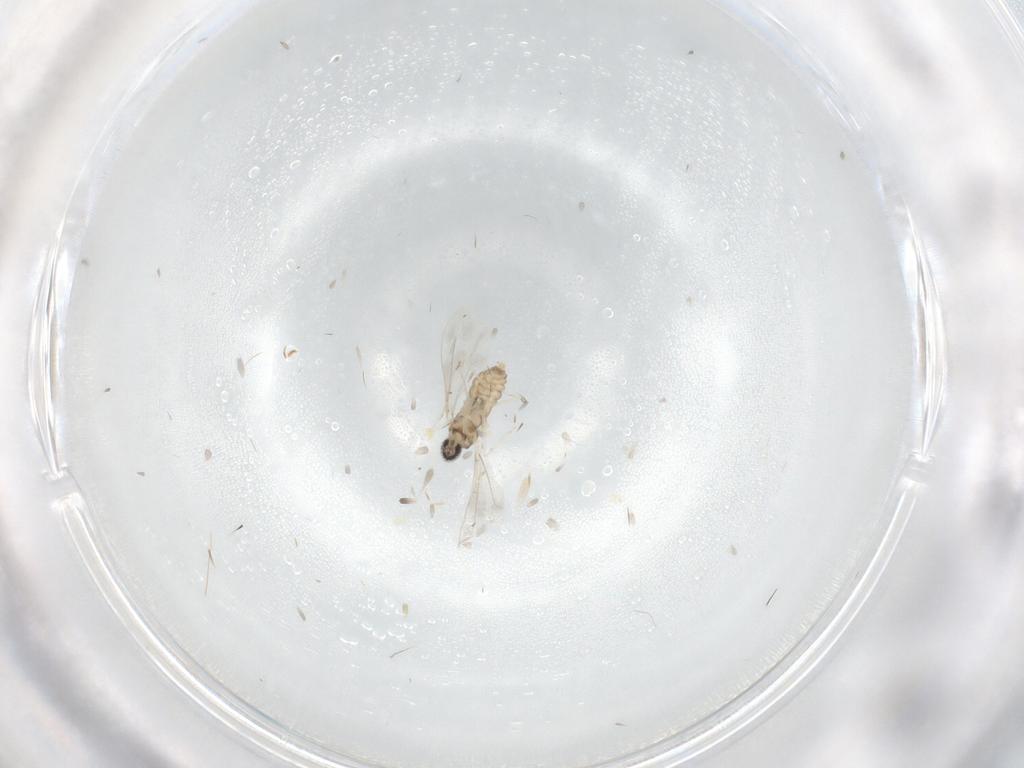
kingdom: Animalia
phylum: Arthropoda
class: Insecta
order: Diptera
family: Cecidomyiidae
